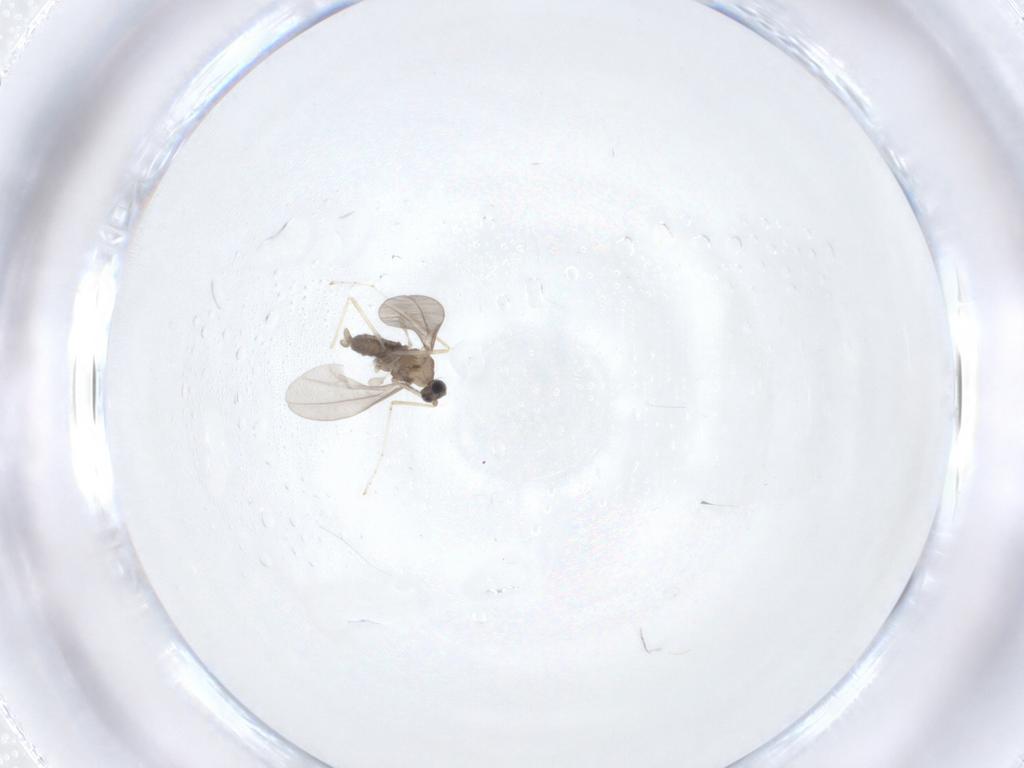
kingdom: Animalia
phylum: Arthropoda
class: Insecta
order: Diptera
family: Cecidomyiidae
